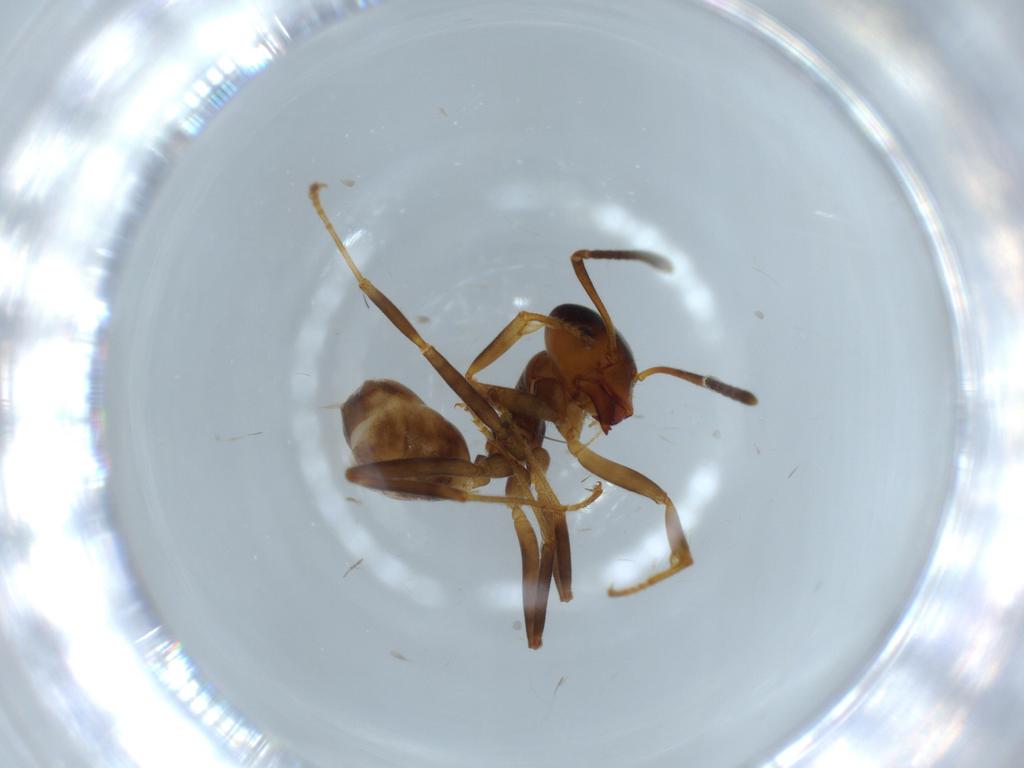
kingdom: Animalia
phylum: Arthropoda
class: Insecta
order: Hymenoptera
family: Formicidae
